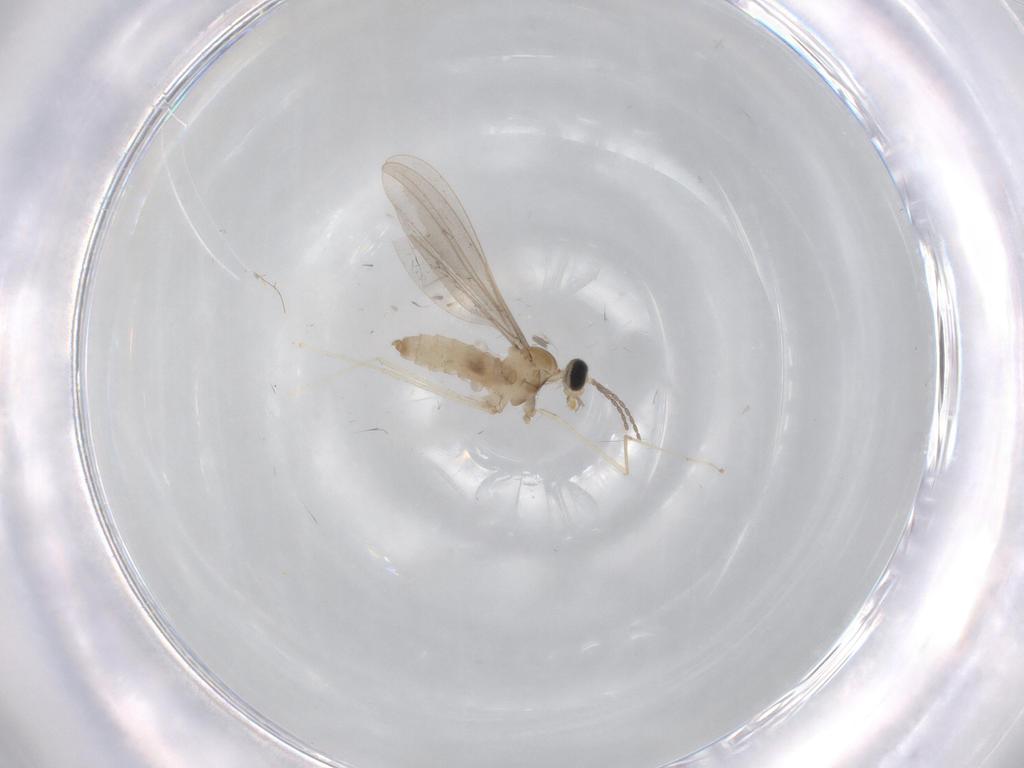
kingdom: Animalia
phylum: Arthropoda
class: Insecta
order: Diptera
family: Cecidomyiidae
